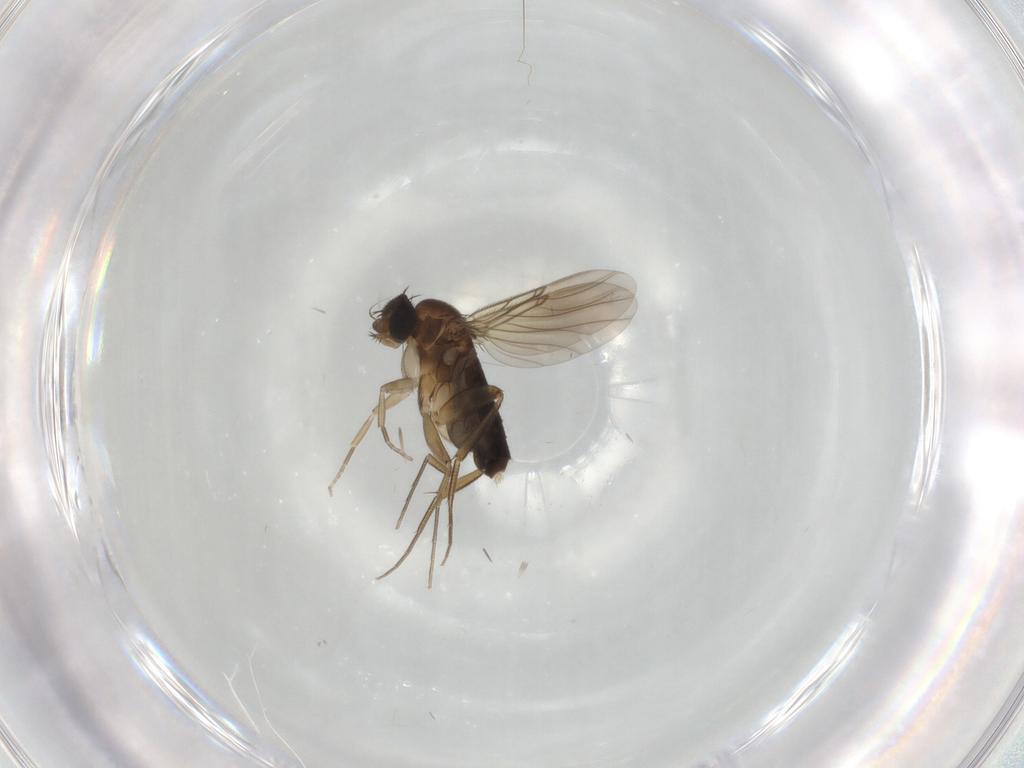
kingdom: Animalia
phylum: Arthropoda
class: Insecta
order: Diptera
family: Phoridae
